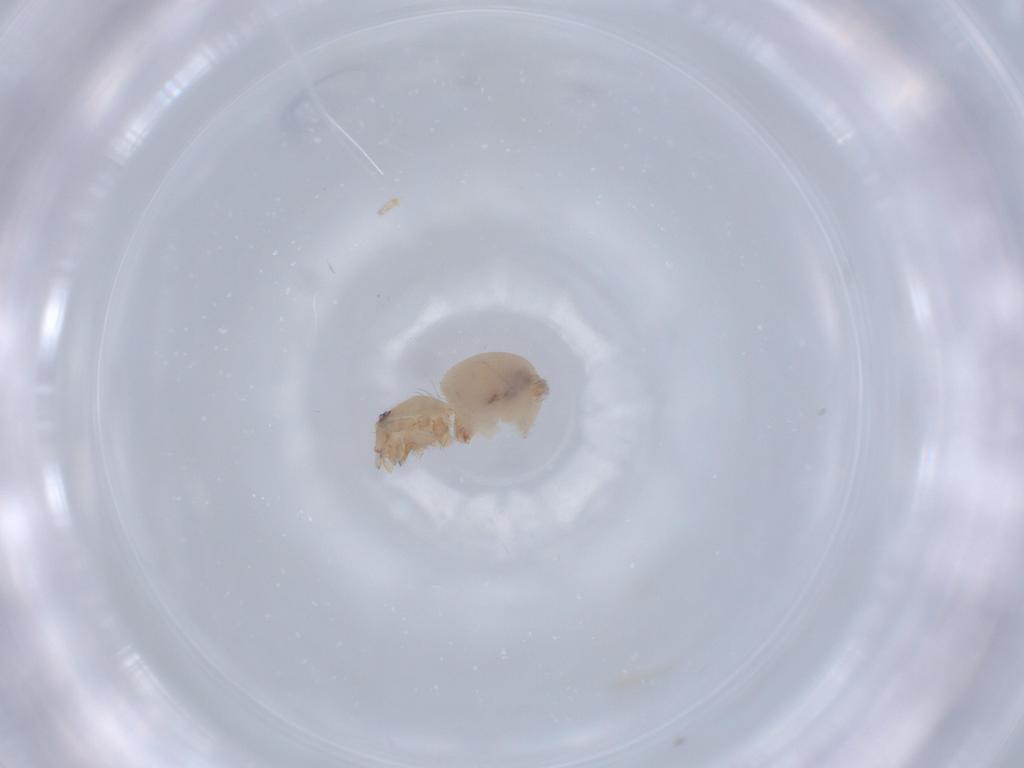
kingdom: Animalia
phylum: Arthropoda
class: Arachnida
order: Araneae
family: Oonopidae
